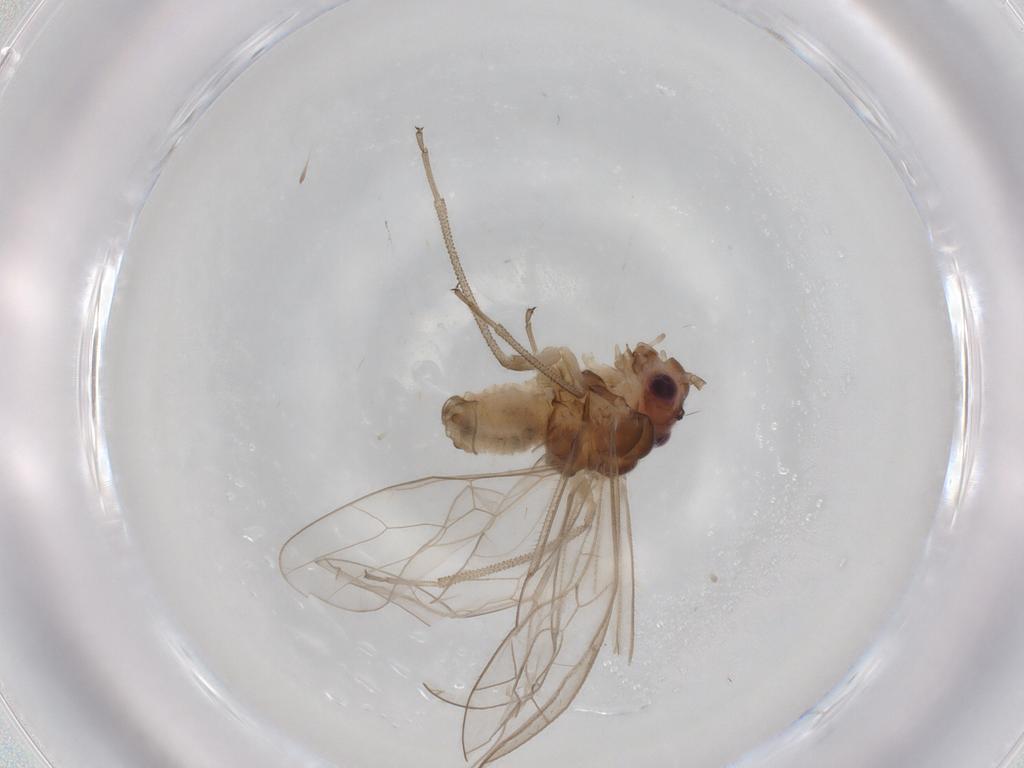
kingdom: Animalia
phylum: Arthropoda
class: Insecta
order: Psocodea
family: Stenopsocidae
